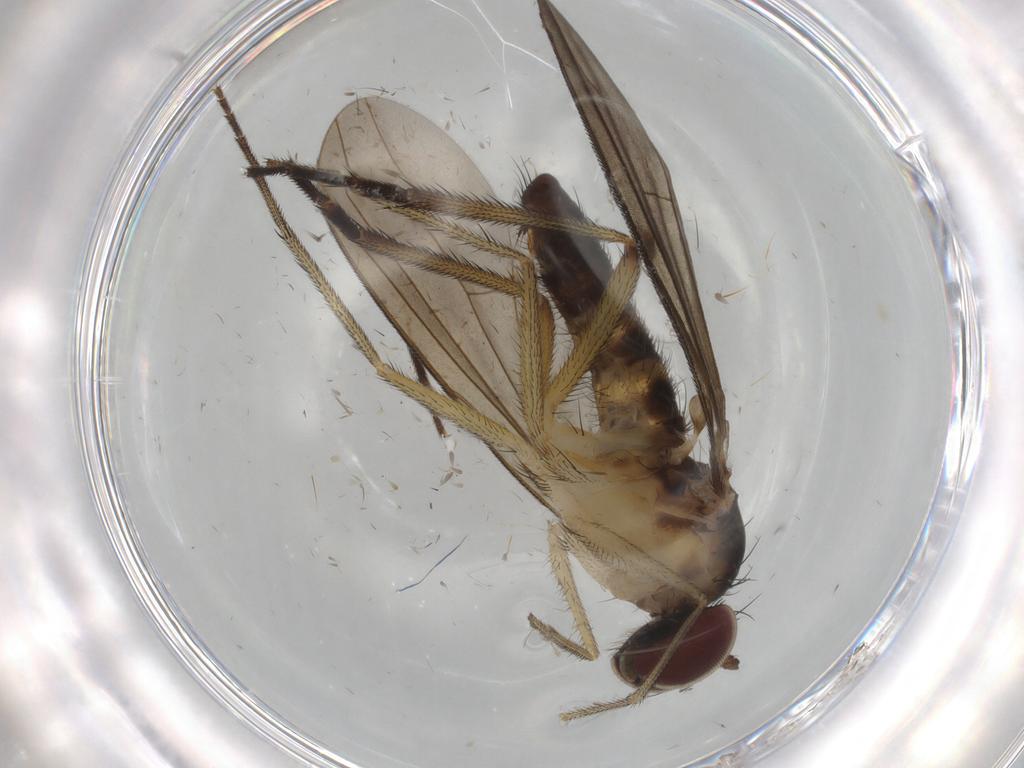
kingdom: Animalia
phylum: Arthropoda
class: Insecta
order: Diptera
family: Dolichopodidae
